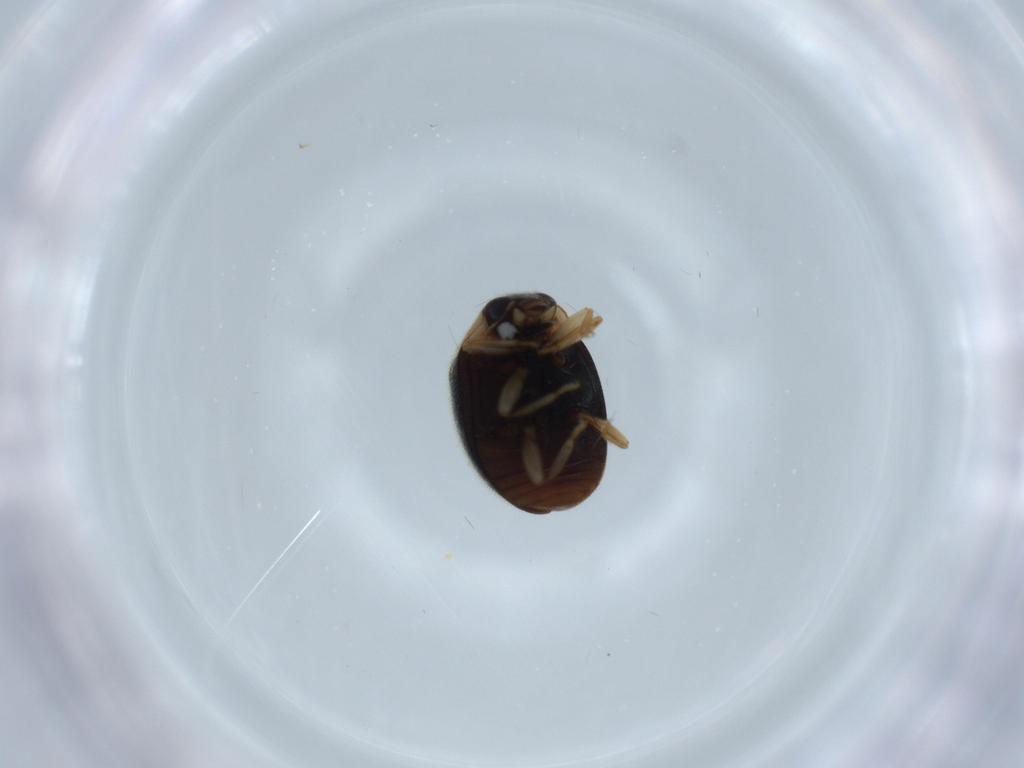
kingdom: Animalia
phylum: Arthropoda
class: Insecta
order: Coleoptera
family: Curculionidae
